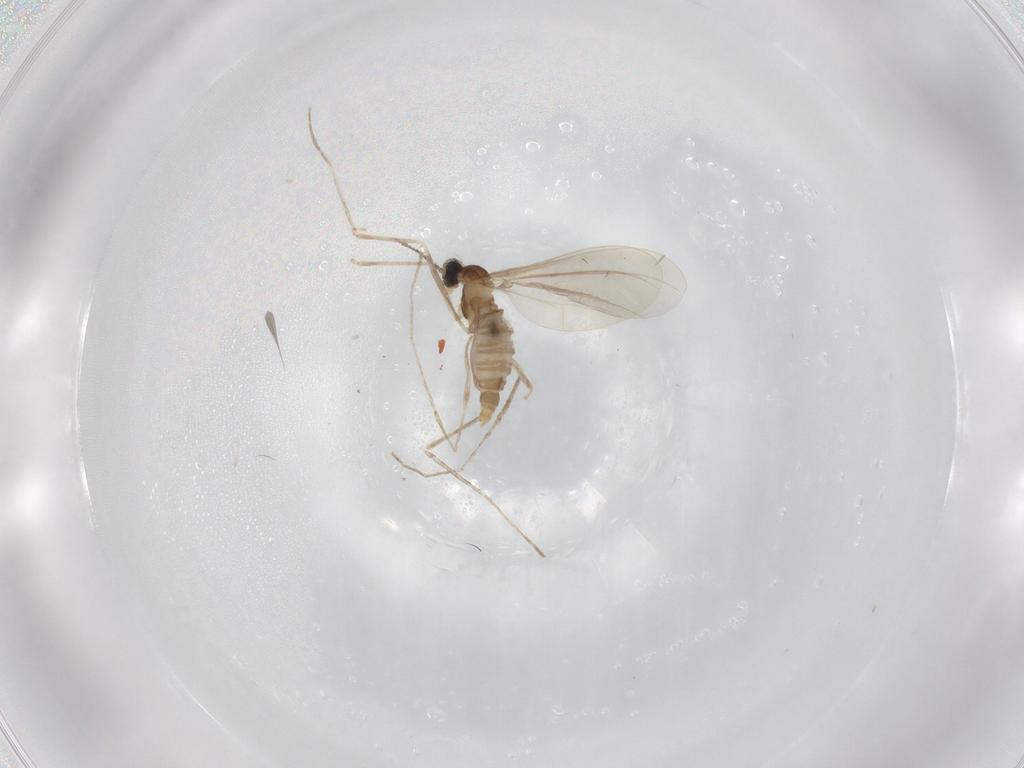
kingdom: Animalia
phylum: Arthropoda
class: Insecta
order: Diptera
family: Cecidomyiidae
